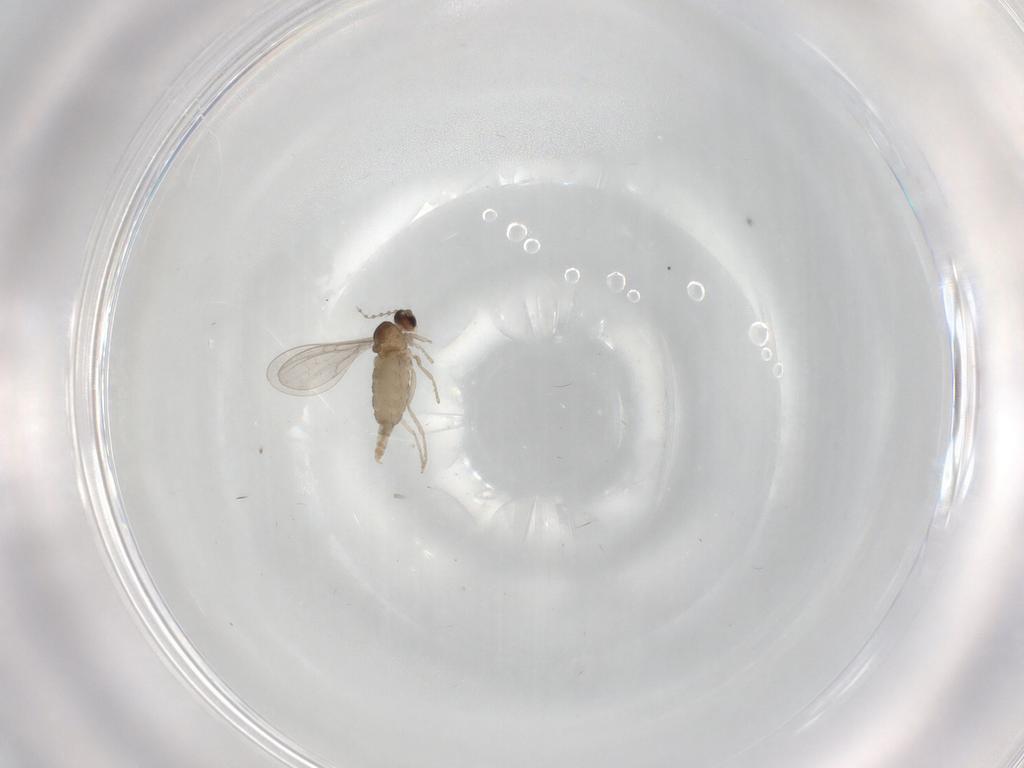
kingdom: Animalia
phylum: Arthropoda
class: Insecta
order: Diptera
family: Cecidomyiidae
